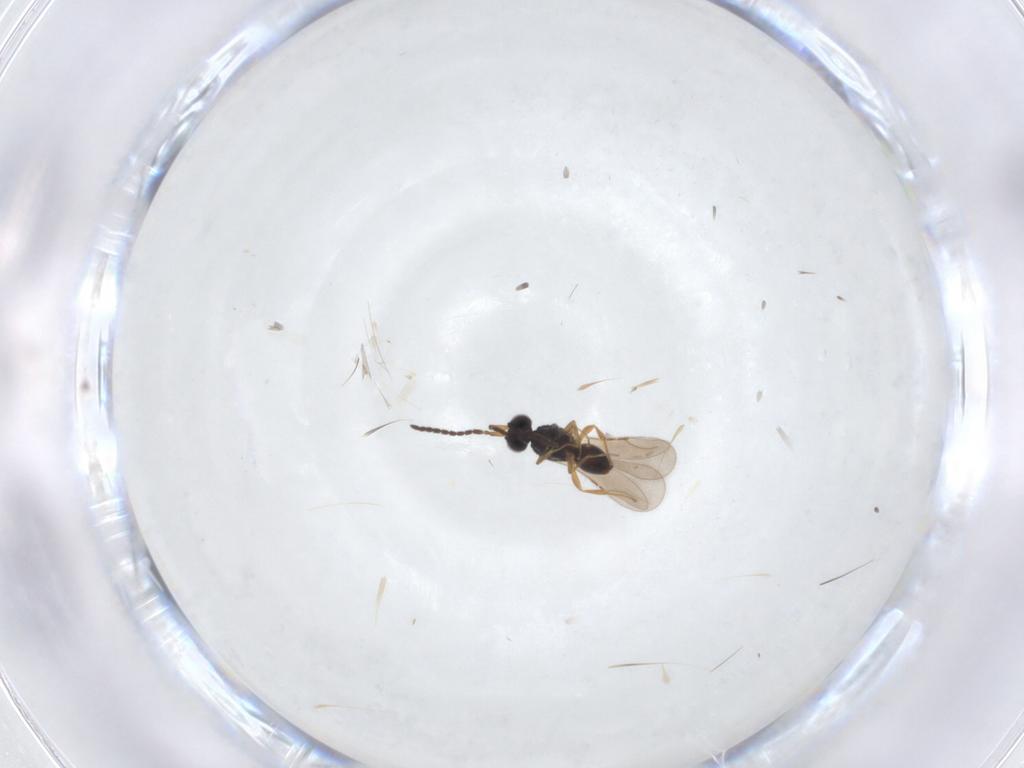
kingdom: Animalia
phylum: Arthropoda
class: Insecta
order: Hymenoptera
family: Ceraphronidae
